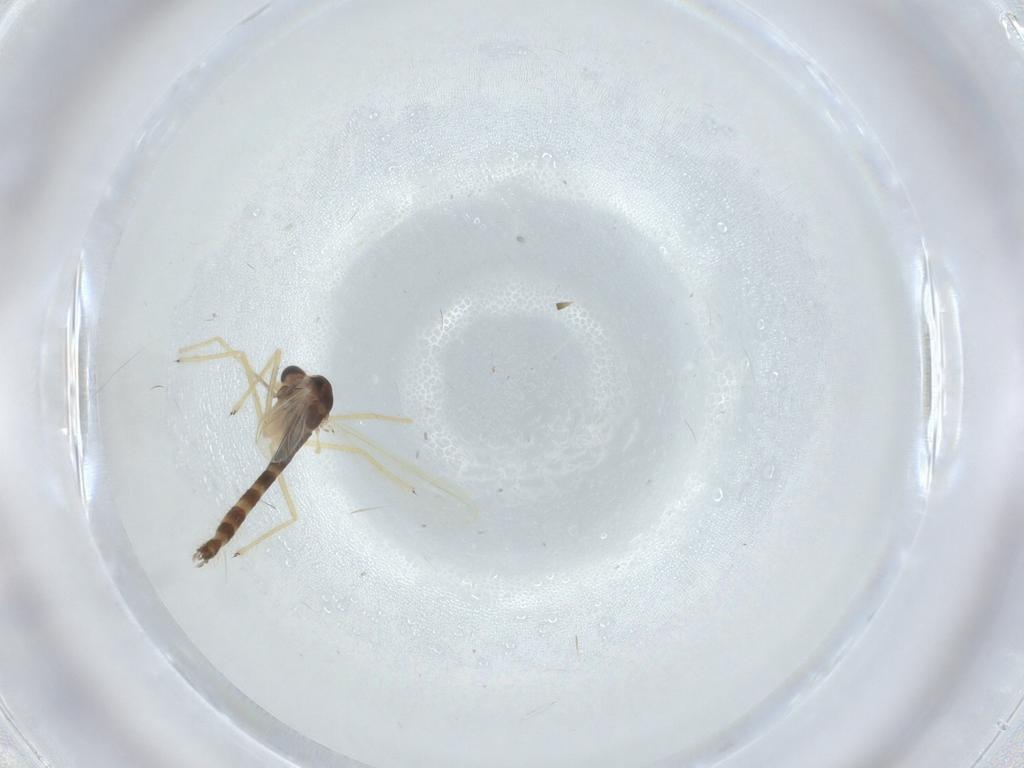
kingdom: Animalia
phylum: Arthropoda
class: Insecta
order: Diptera
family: Chironomidae
